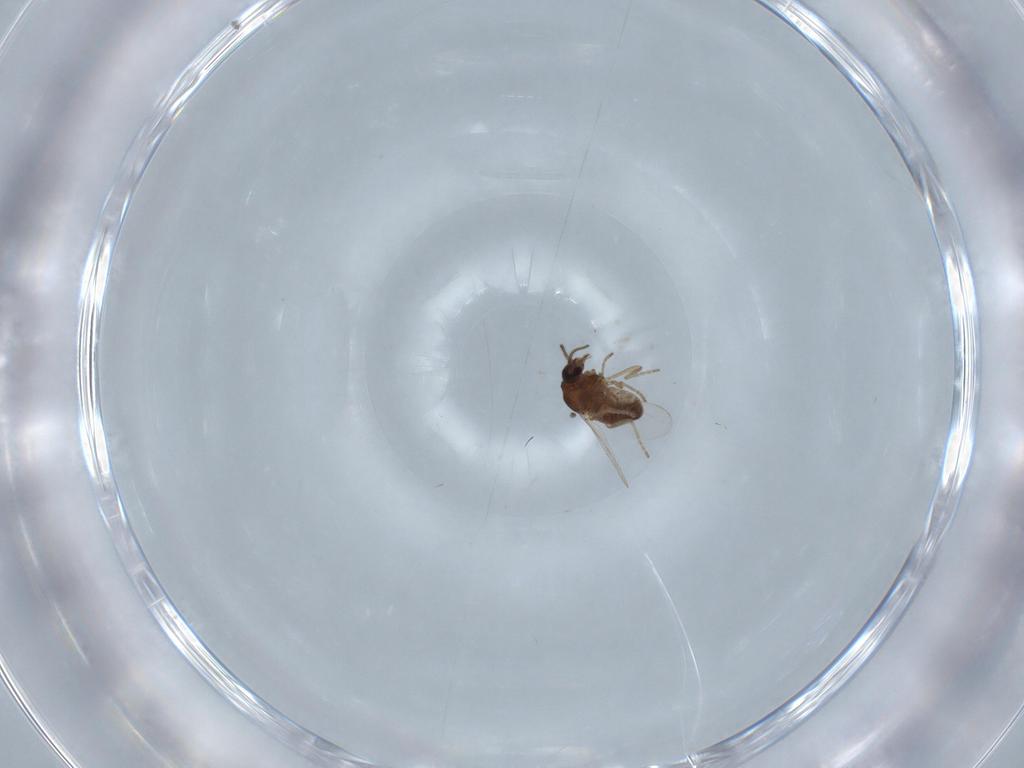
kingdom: Animalia
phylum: Arthropoda
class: Insecta
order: Diptera
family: Ceratopogonidae
